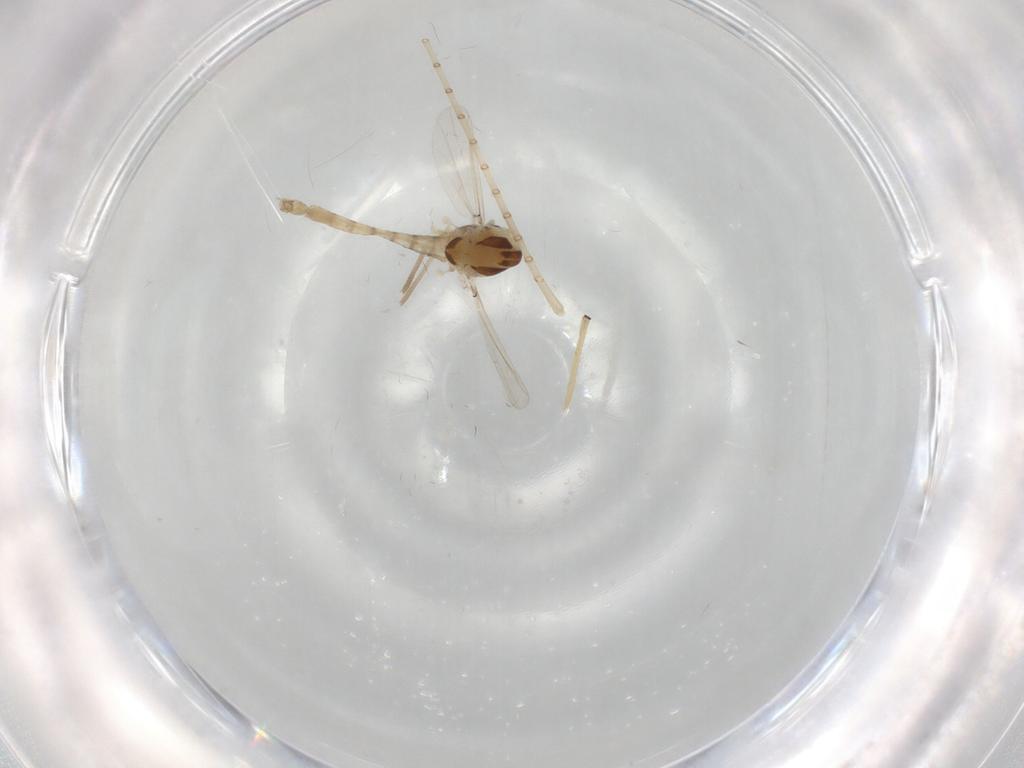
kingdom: Animalia
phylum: Arthropoda
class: Insecta
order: Diptera
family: Chironomidae
